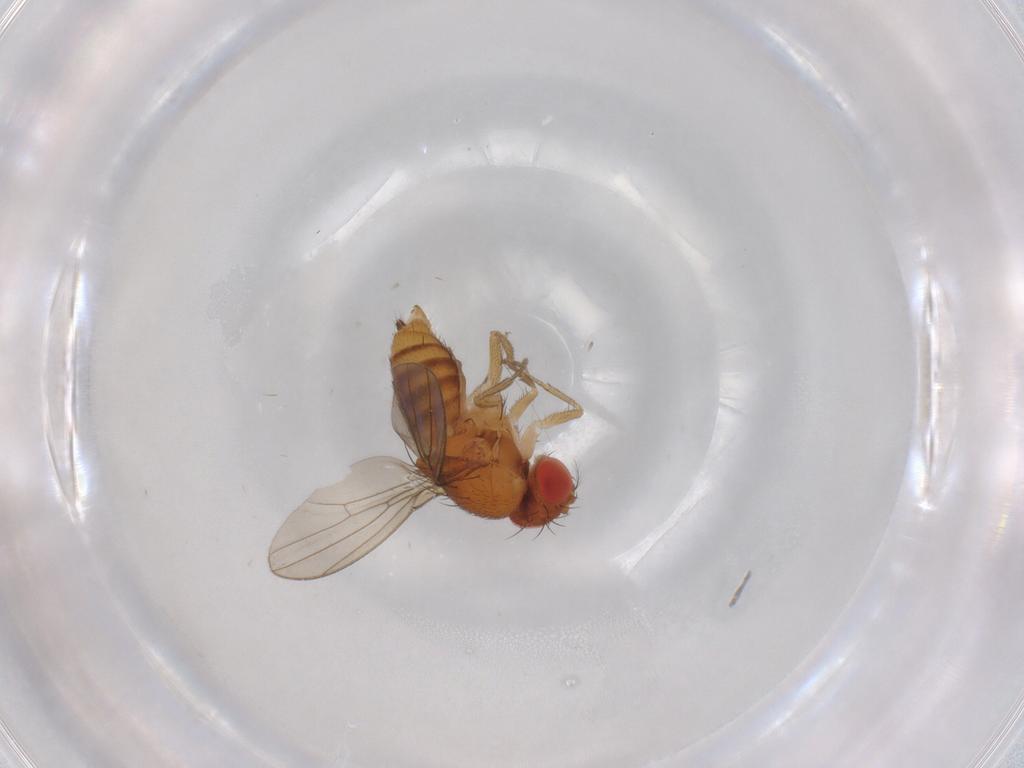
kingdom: Animalia
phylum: Arthropoda
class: Insecta
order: Diptera
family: Drosophilidae
